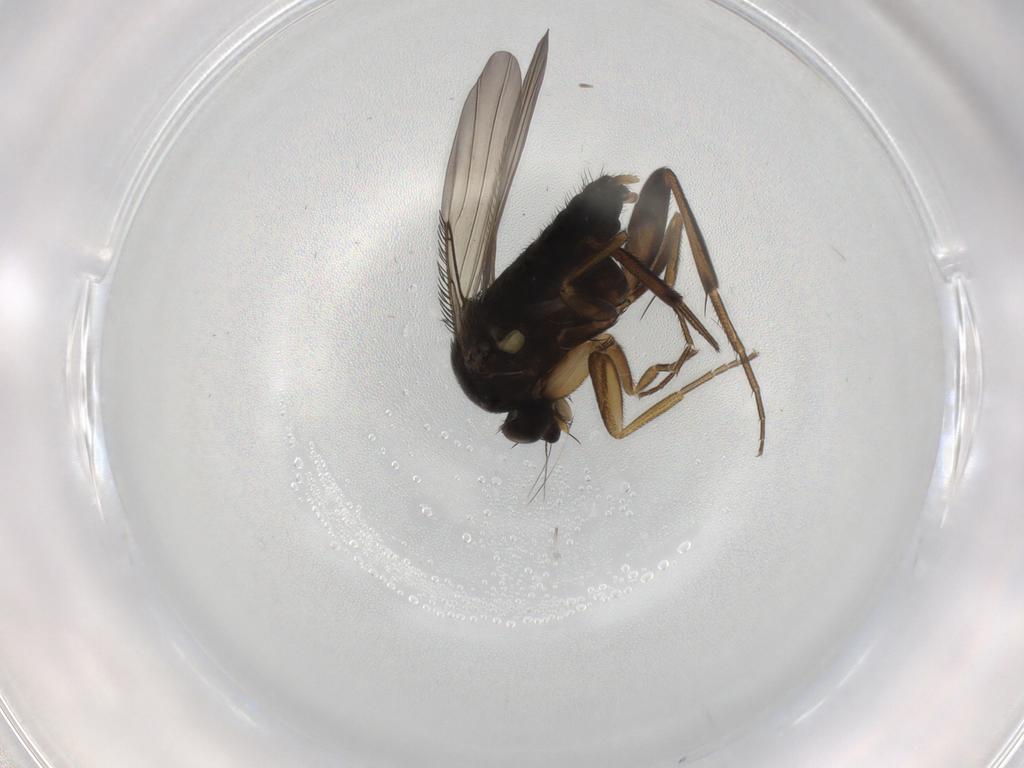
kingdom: Animalia
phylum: Arthropoda
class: Insecta
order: Diptera
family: Phoridae
